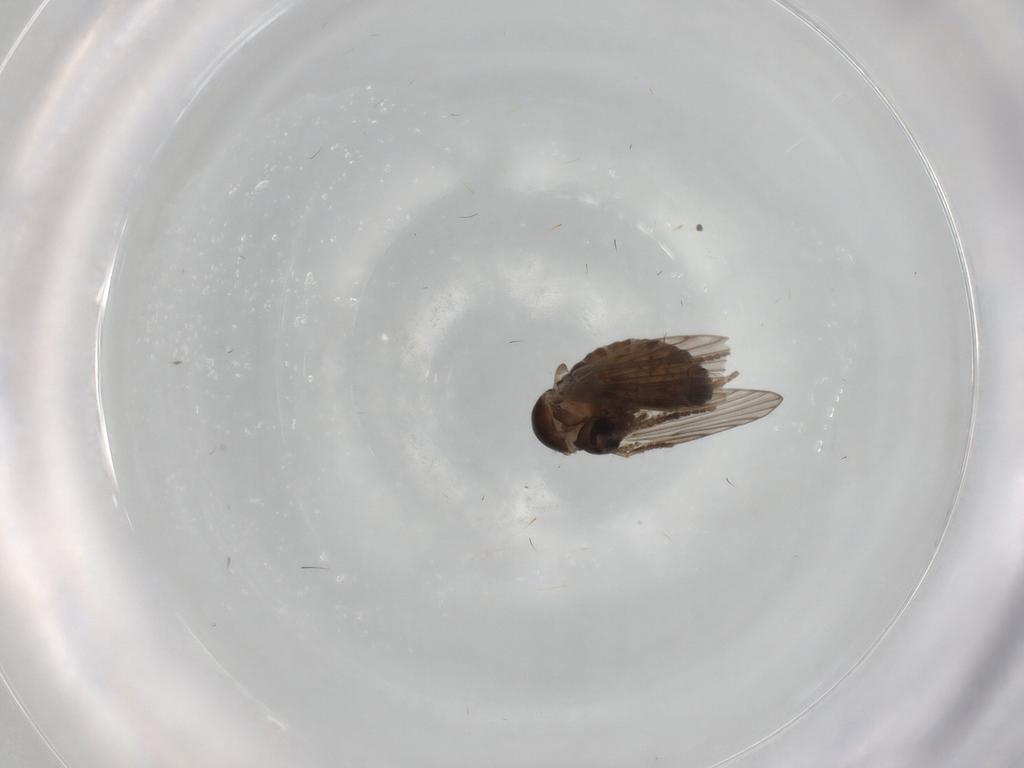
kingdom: Animalia
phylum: Arthropoda
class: Insecta
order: Diptera
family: Psychodidae
